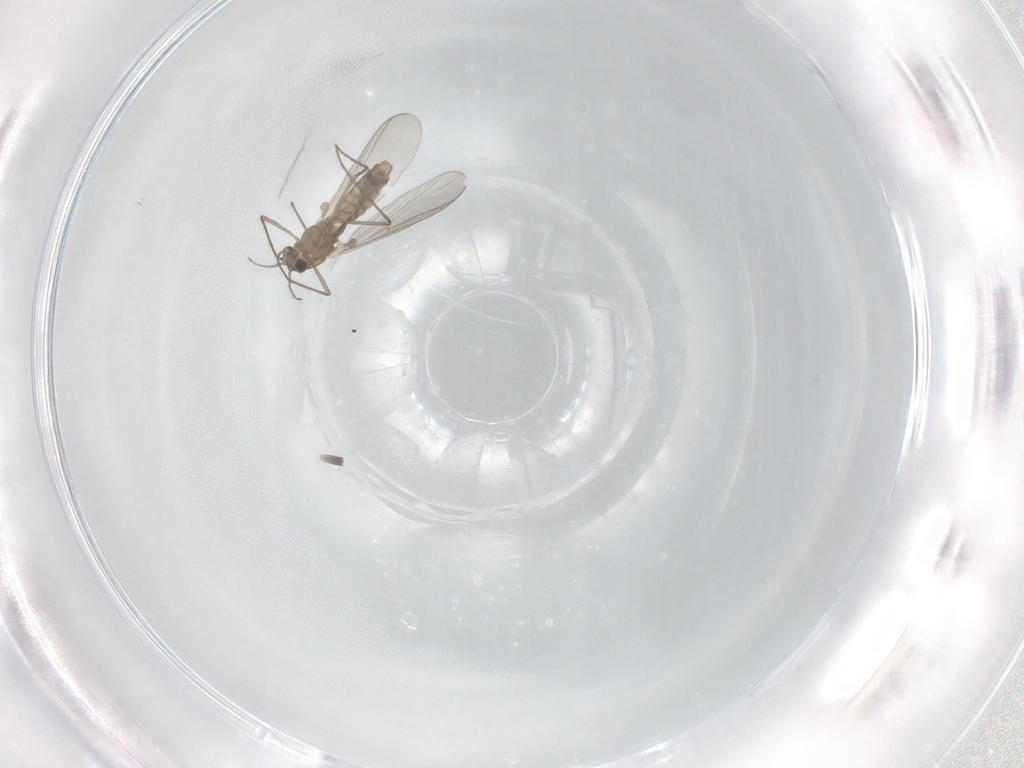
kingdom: Animalia
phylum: Arthropoda
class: Insecta
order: Diptera
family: Chironomidae
